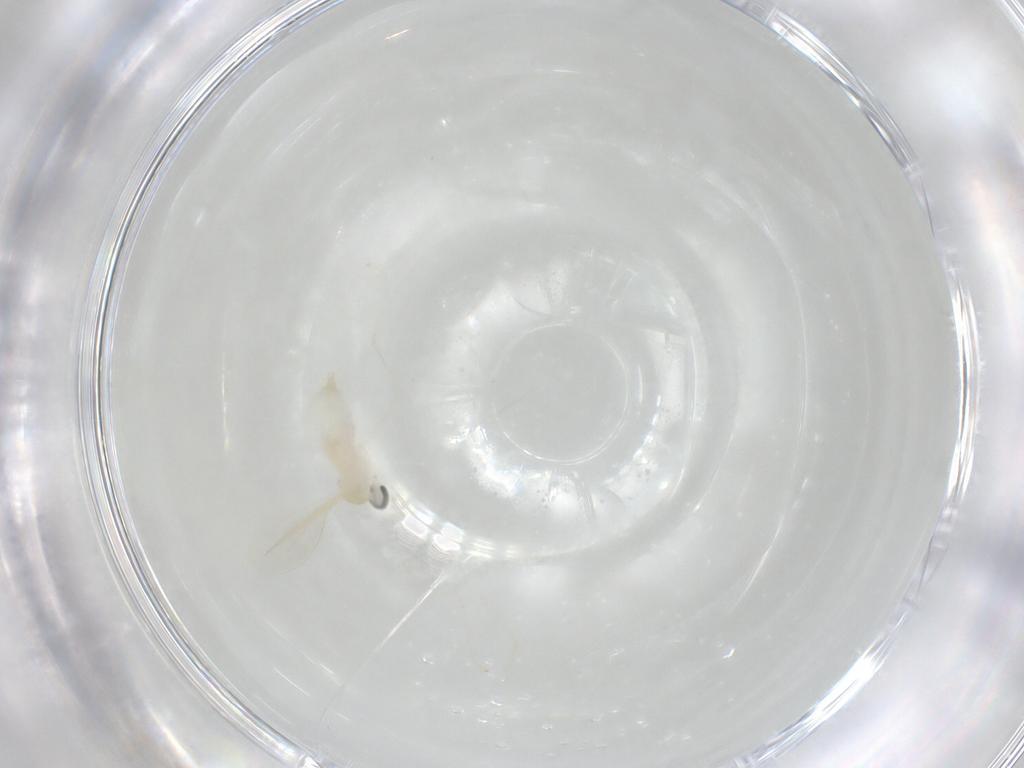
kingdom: Animalia
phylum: Arthropoda
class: Insecta
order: Diptera
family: Cecidomyiidae
